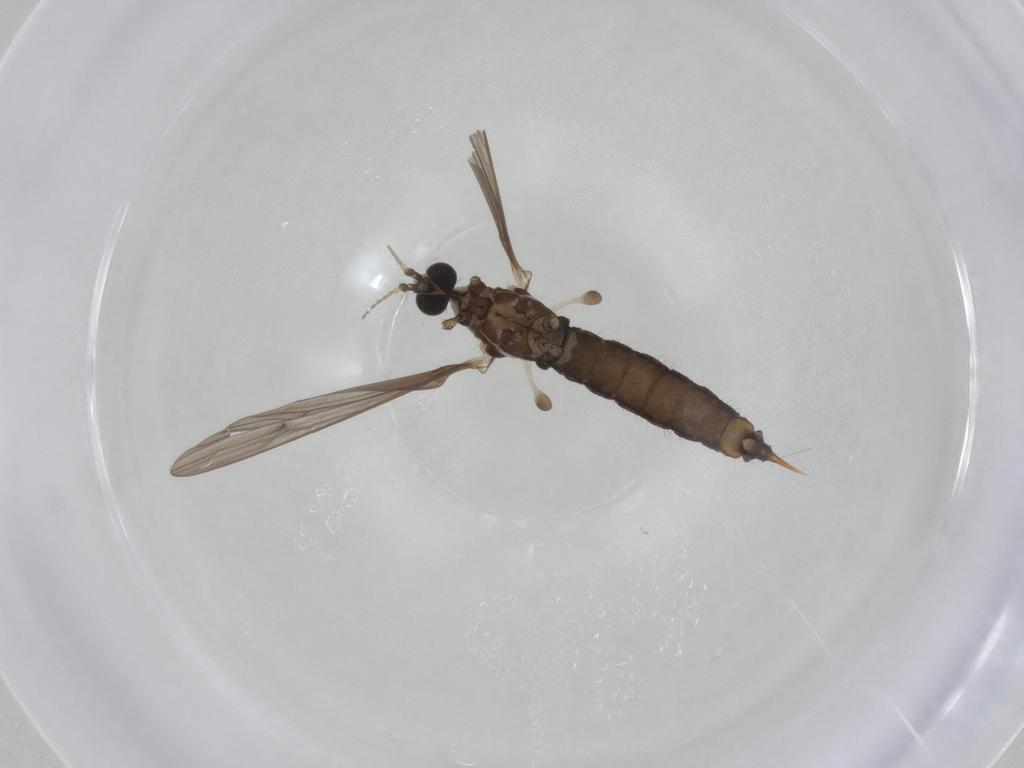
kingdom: Animalia
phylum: Arthropoda
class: Insecta
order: Diptera
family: Limoniidae
